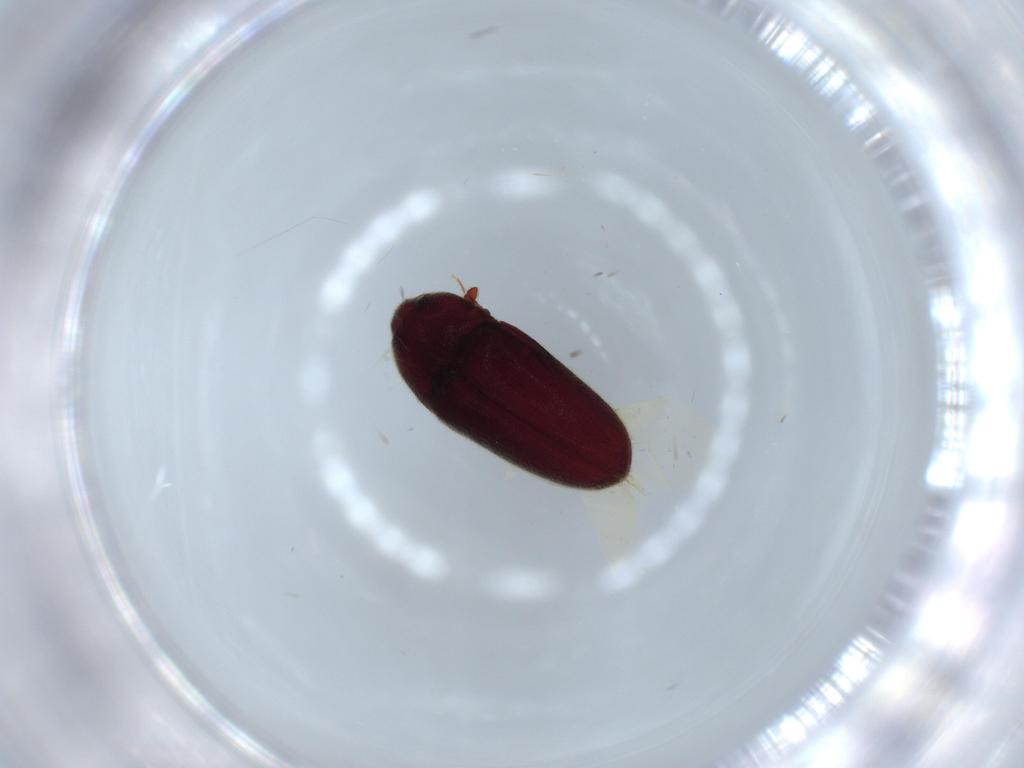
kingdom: Animalia
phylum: Arthropoda
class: Insecta
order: Coleoptera
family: Throscidae
